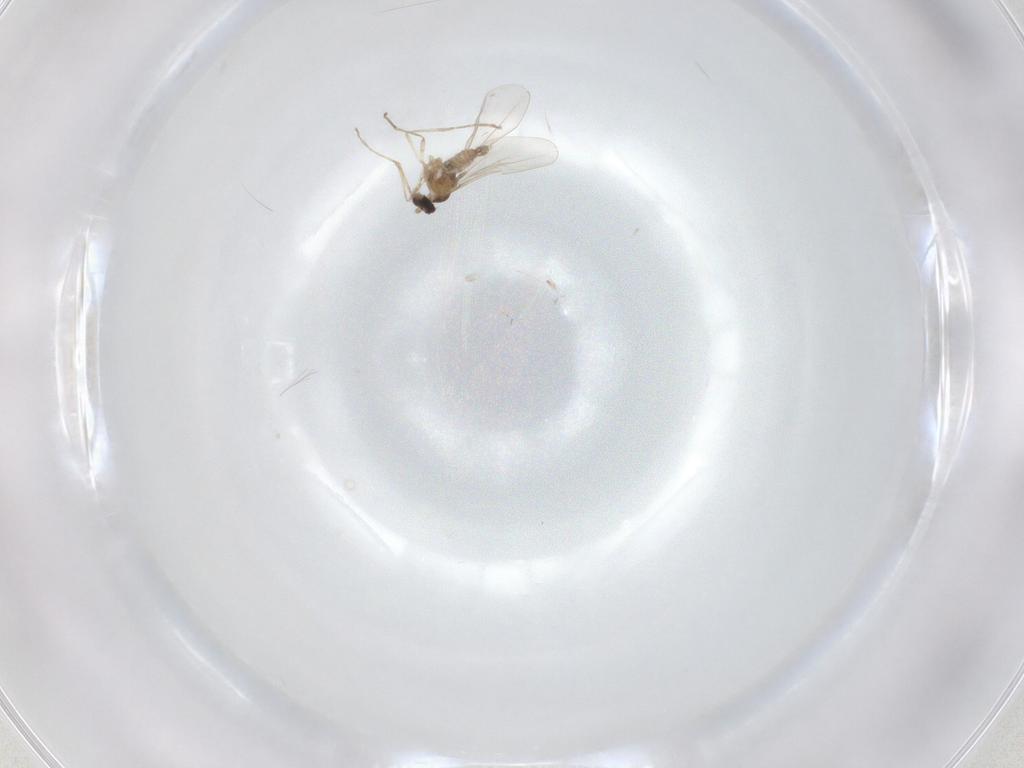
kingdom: Animalia
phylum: Arthropoda
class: Insecta
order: Diptera
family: Cecidomyiidae
